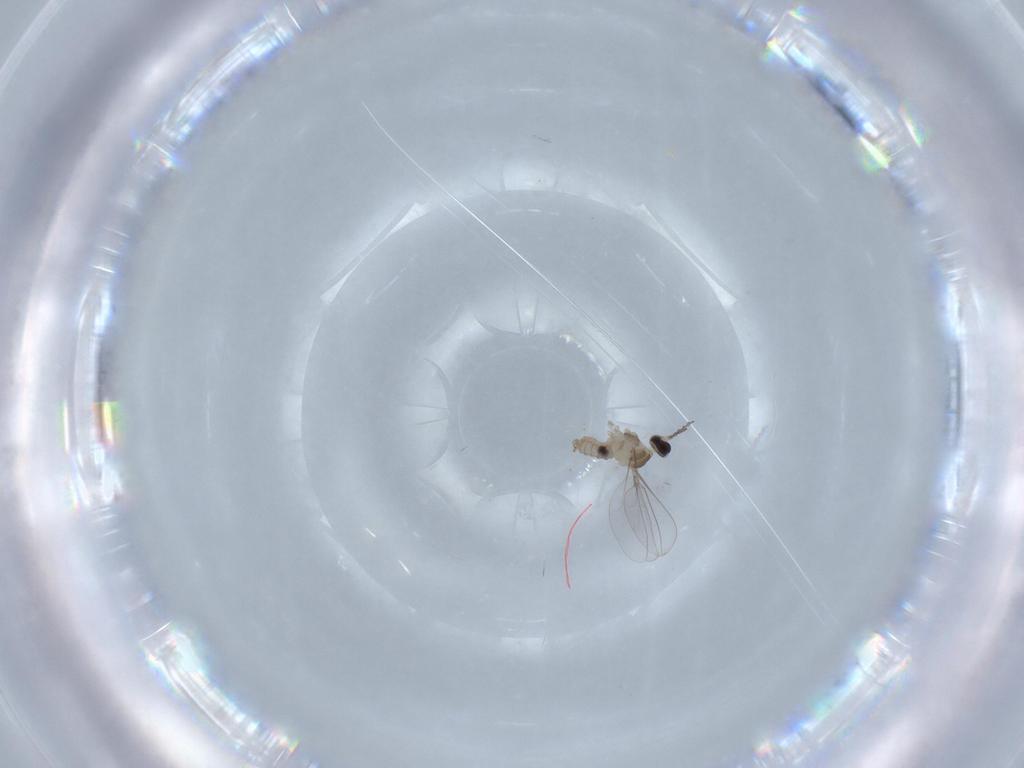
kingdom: Animalia
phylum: Arthropoda
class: Insecta
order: Diptera
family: Cecidomyiidae
